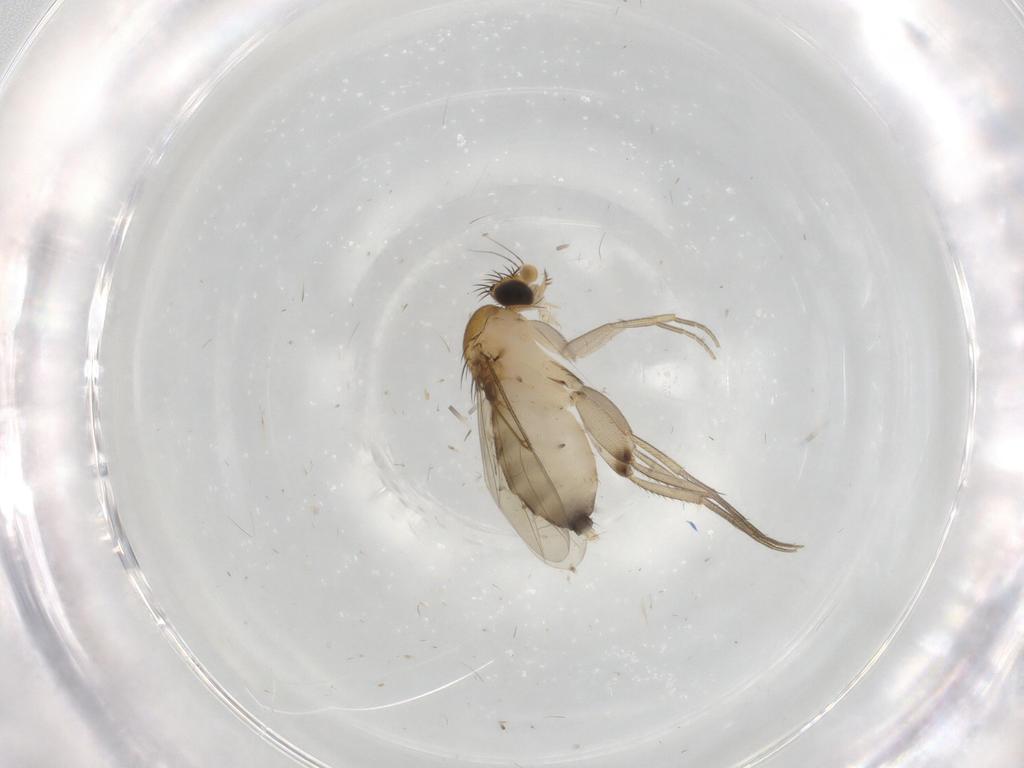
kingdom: Animalia
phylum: Arthropoda
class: Insecta
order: Diptera
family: Phoridae
